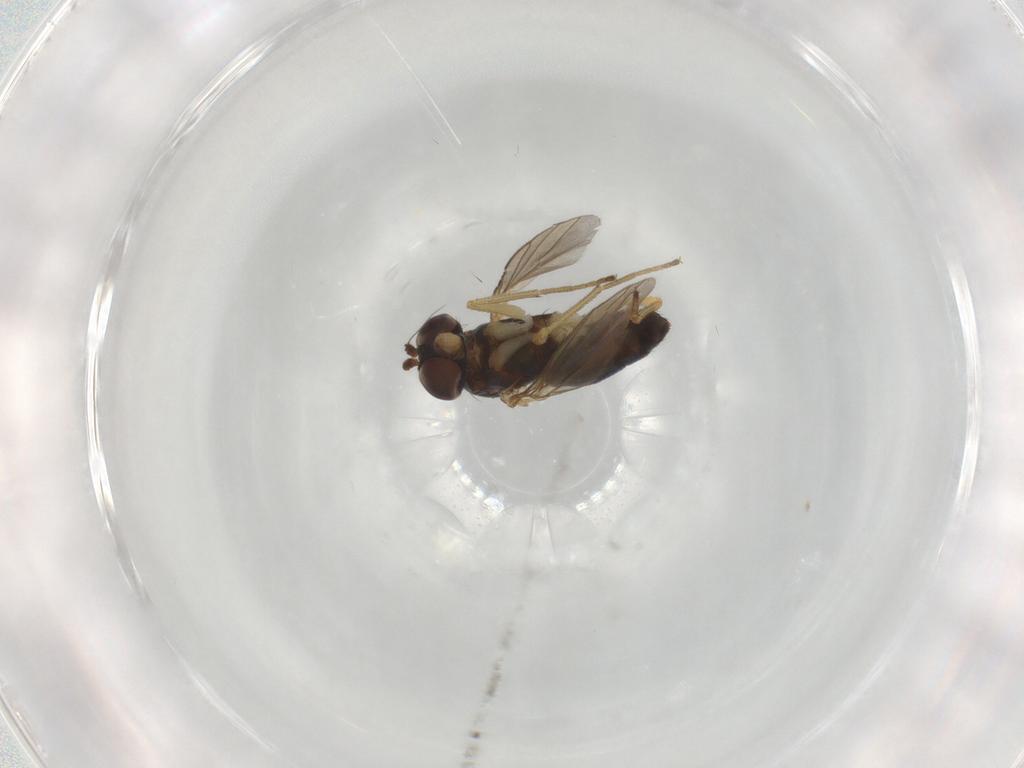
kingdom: Animalia
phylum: Arthropoda
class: Insecta
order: Diptera
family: Dolichopodidae
